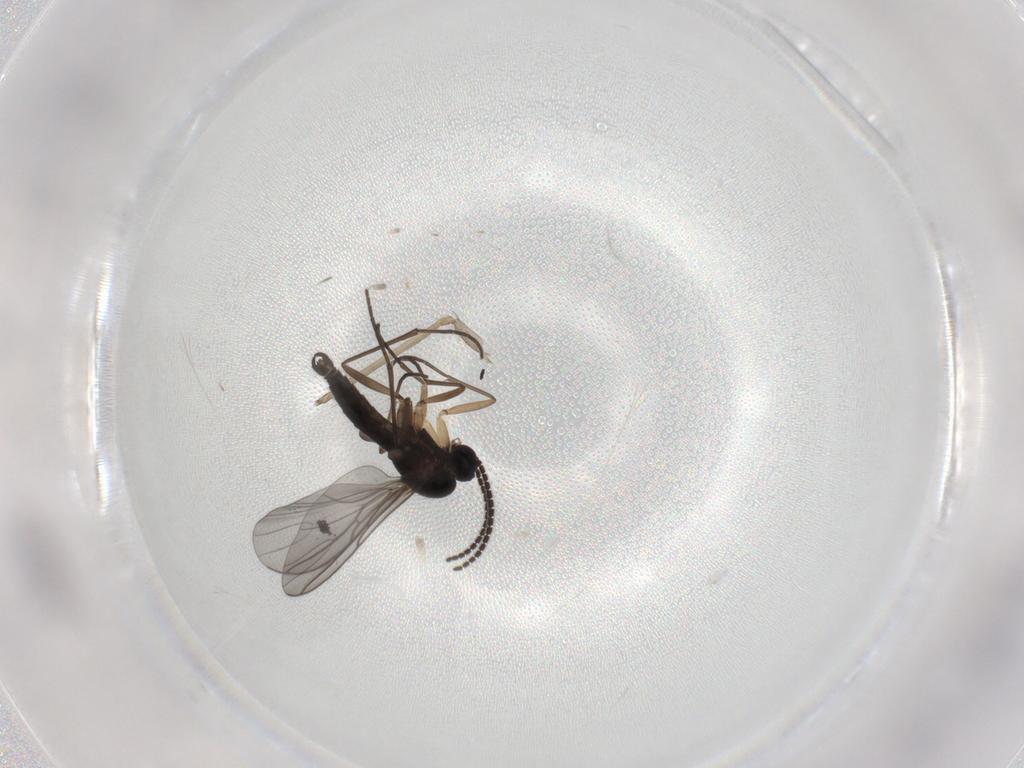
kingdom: Animalia
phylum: Arthropoda
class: Insecta
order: Diptera
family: Sciaridae
